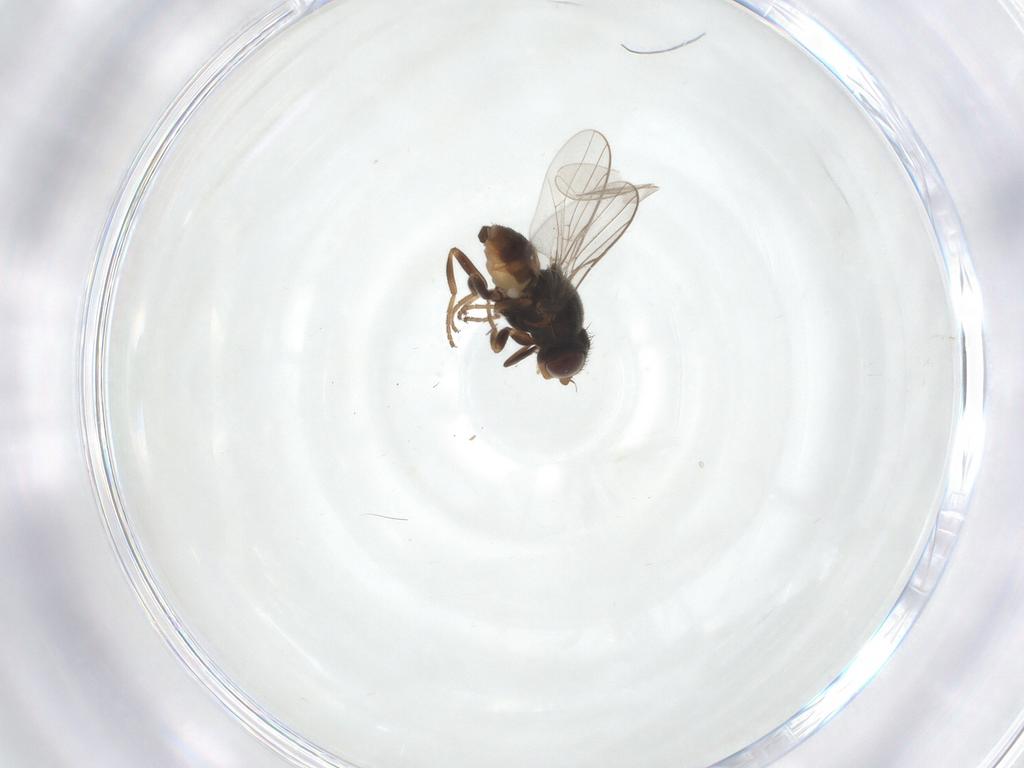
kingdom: Animalia
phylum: Arthropoda
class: Insecta
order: Diptera
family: Chloropidae
